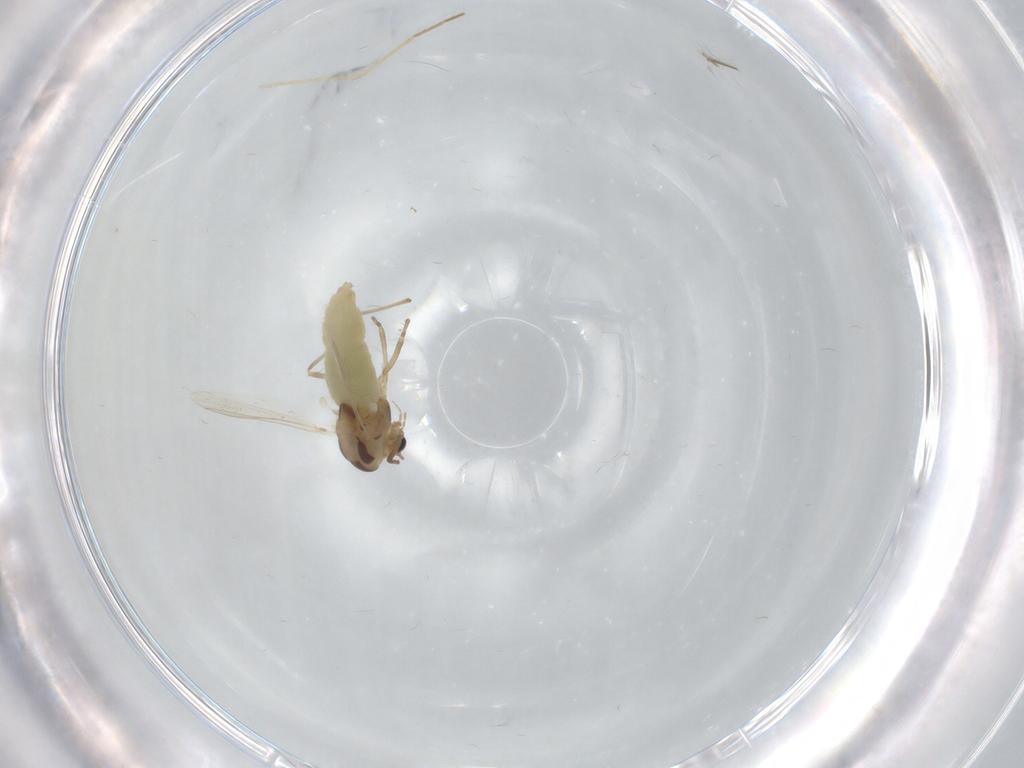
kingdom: Animalia
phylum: Arthropoda
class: Insecta
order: Diptera
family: Chironomidae
